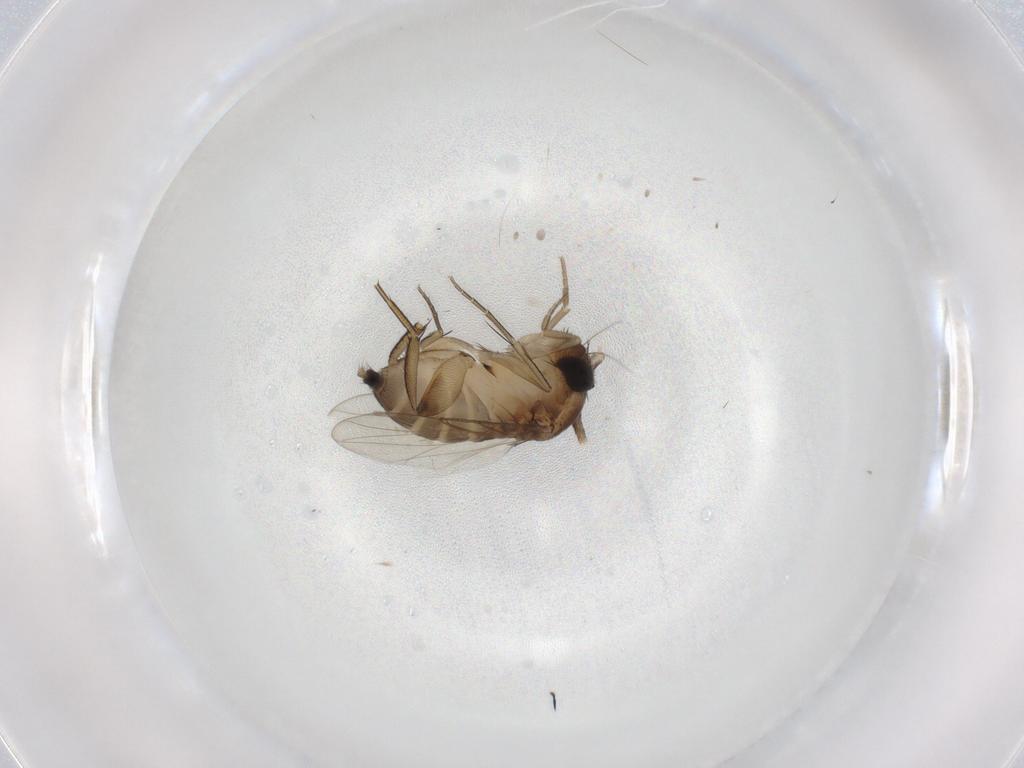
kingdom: Animalia
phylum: Arthropoda
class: Insecta
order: Diptera
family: Phoridae
